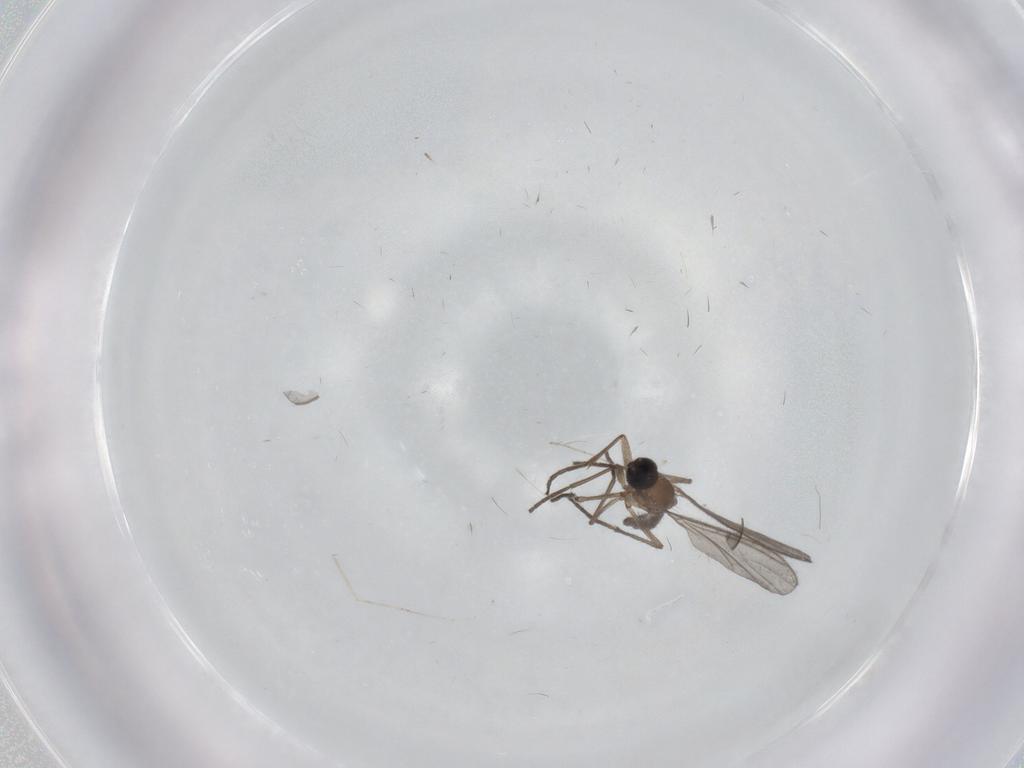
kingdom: Animalia
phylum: Arthropoda
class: Insecta
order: Diptera
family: Sciaridae
